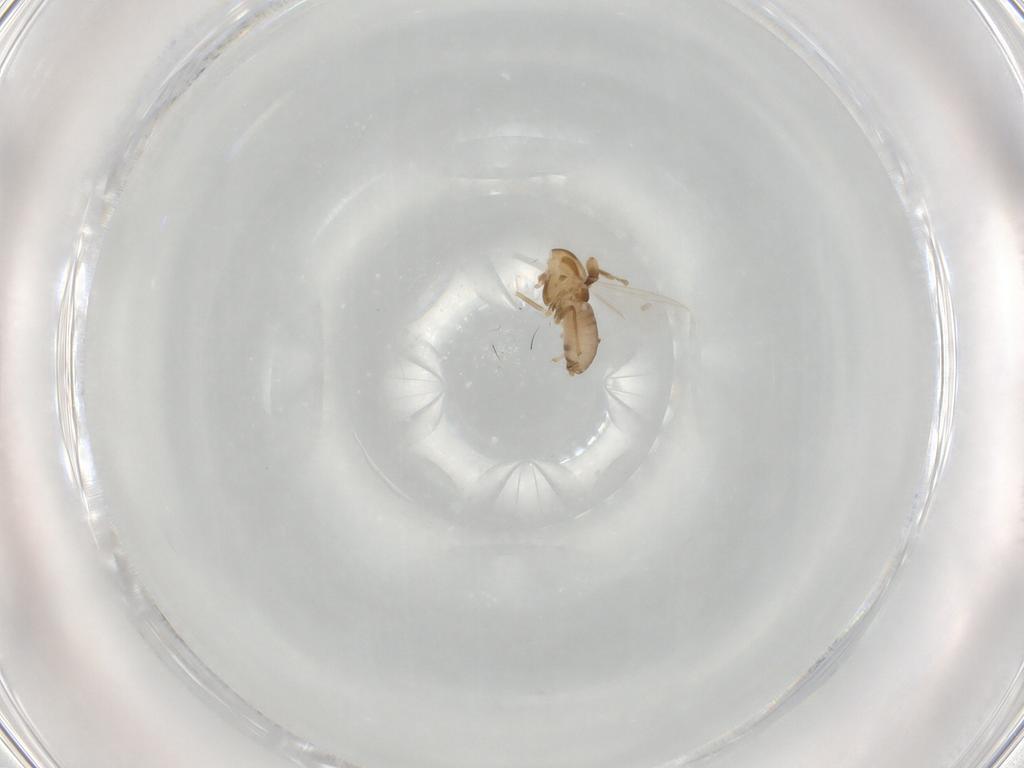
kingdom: Animalia
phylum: Arthropoda
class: Insecta
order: Diptera
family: Chironomidae
